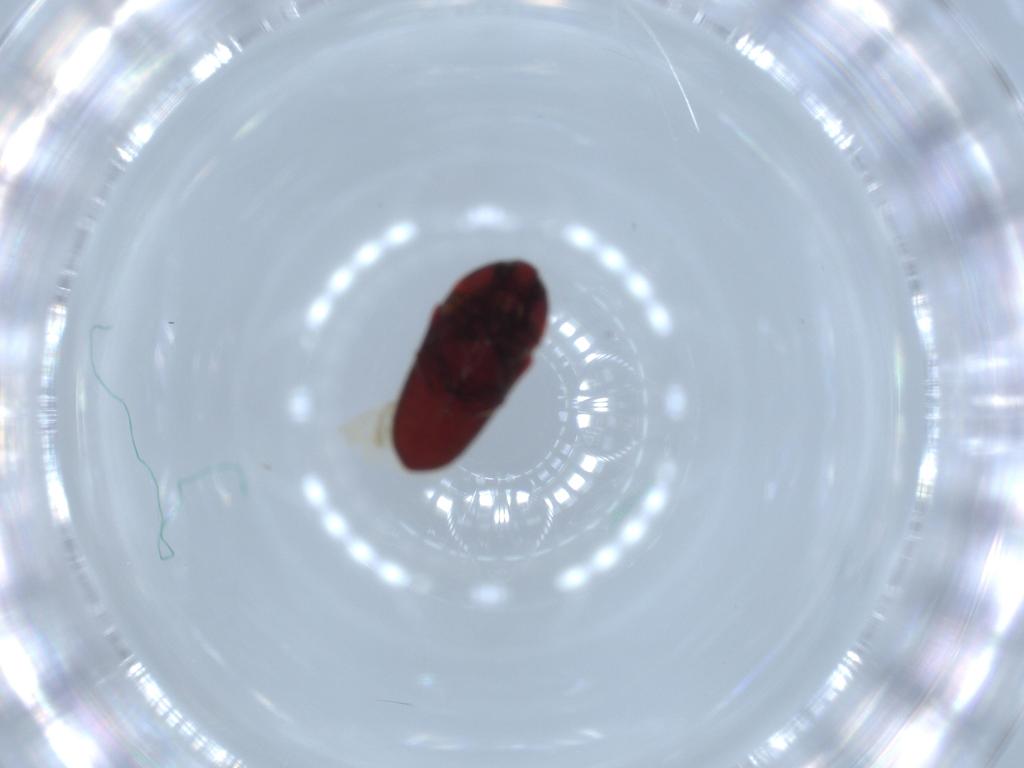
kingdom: Animalia
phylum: Arthropoda
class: Insecta
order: Coleoptera
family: Throscidae
